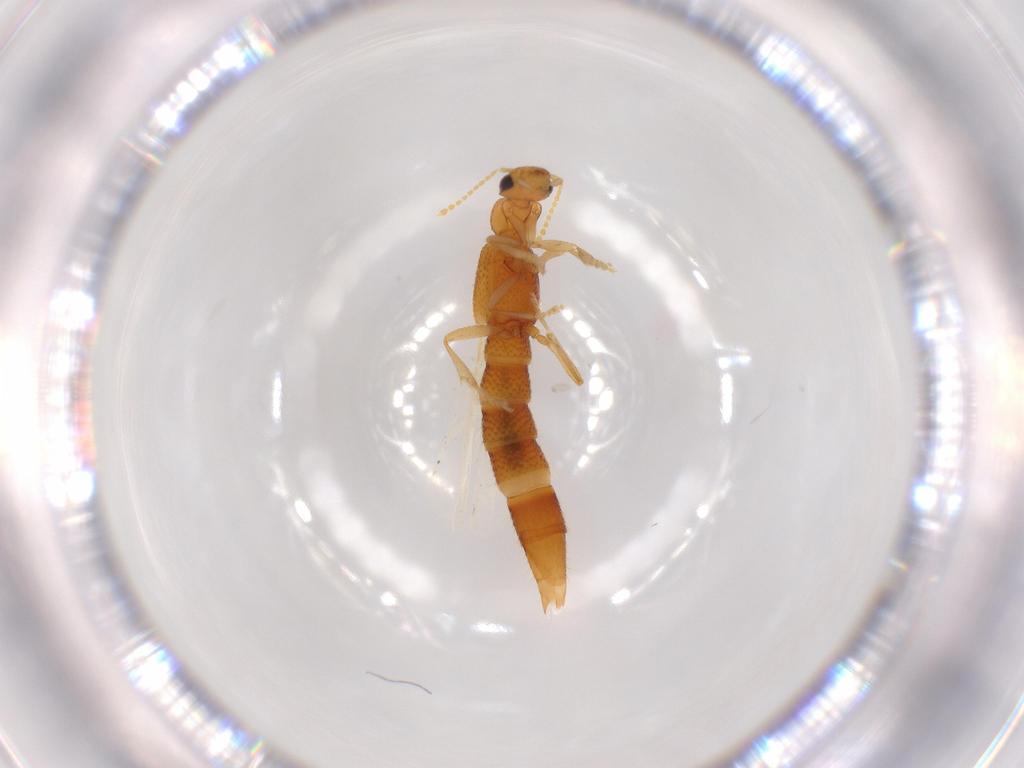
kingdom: Animalia
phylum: Arthropoda
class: Insecta
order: Coleoptera
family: Staphylinidae
